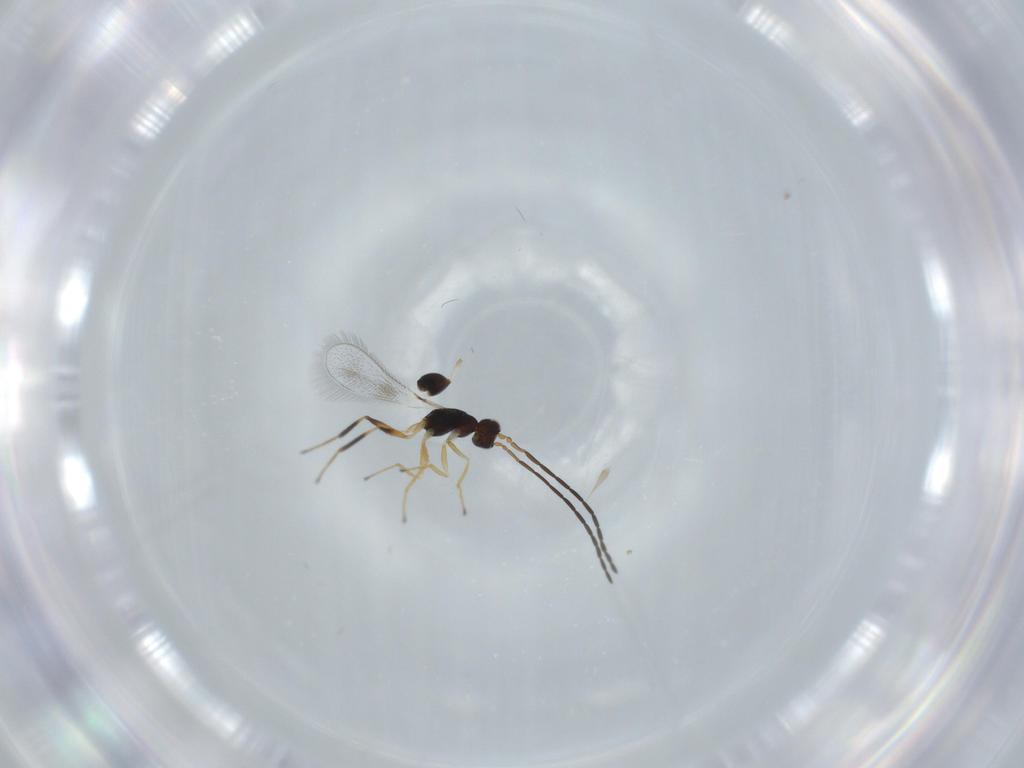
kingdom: Animalia
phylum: Arthropoda
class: Insecta
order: Hymenoptera
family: Mymaridae
